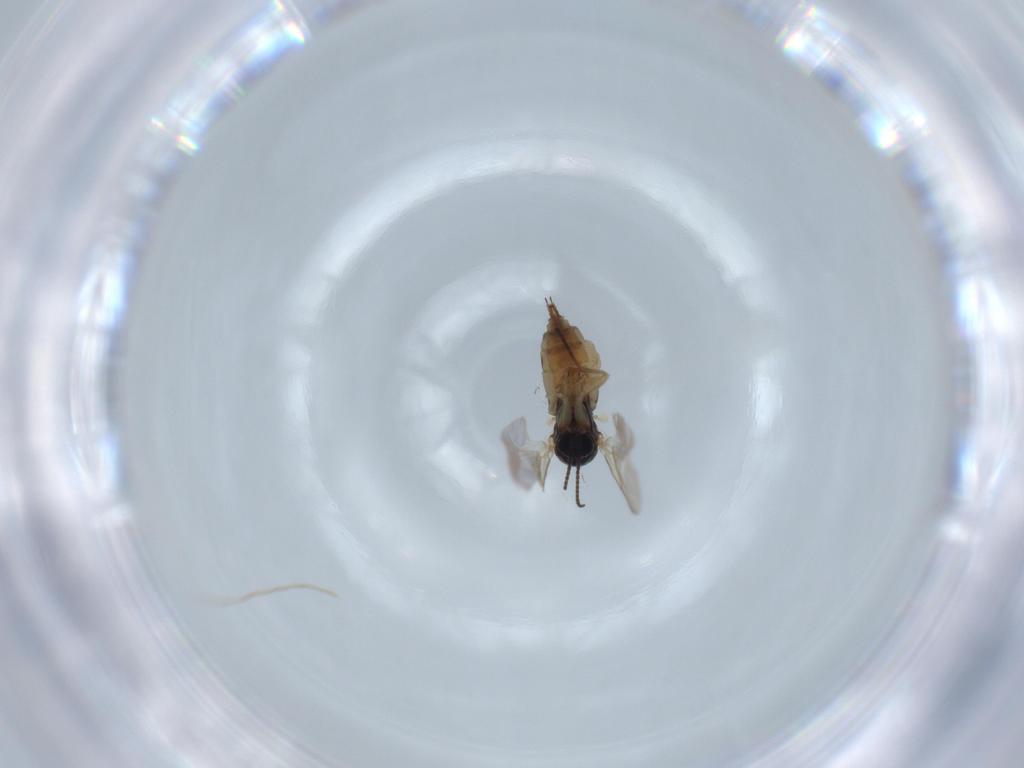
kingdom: Animalia
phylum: Arthropoda
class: Insecta
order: Diptera
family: Sciaridae
